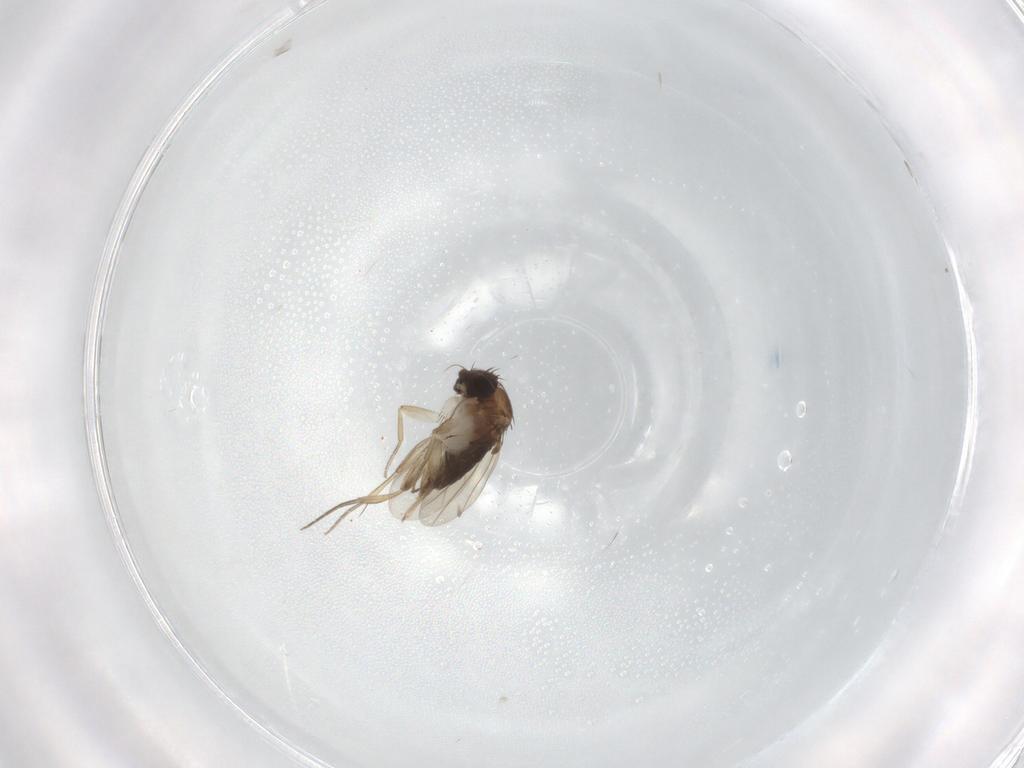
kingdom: Animalia
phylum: Arthropoda
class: Insecta
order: Diptera
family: Phoridae
